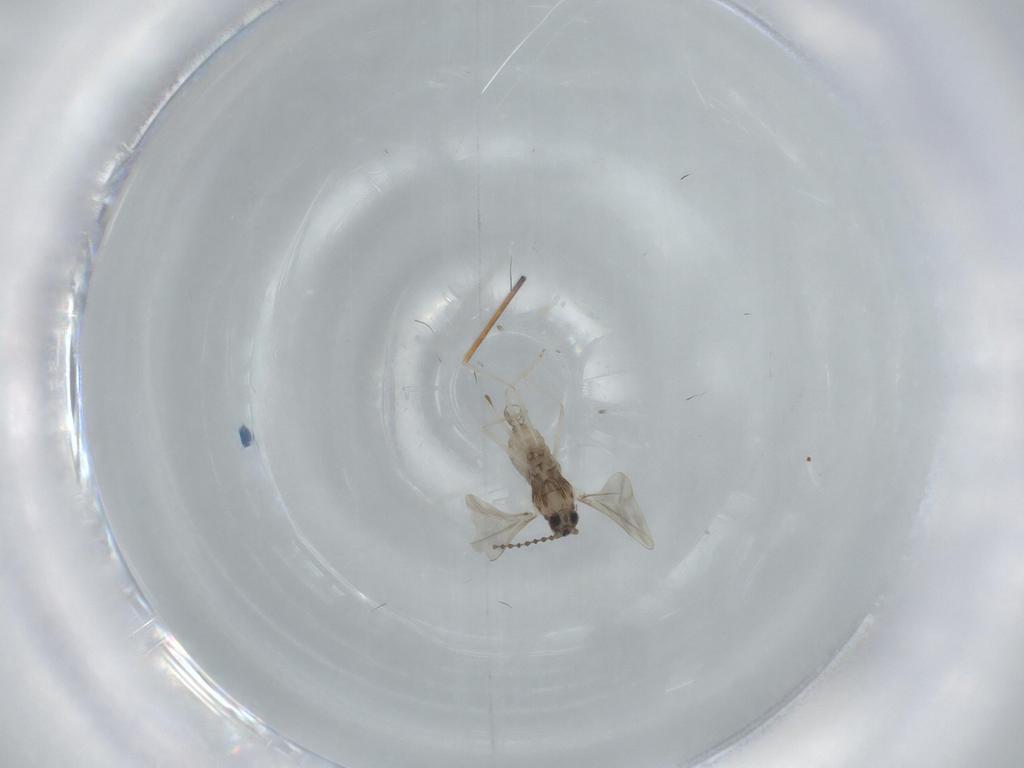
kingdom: Animalia
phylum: Arthropoda
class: Insecta
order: Diptera
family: Cecidomyiidae
